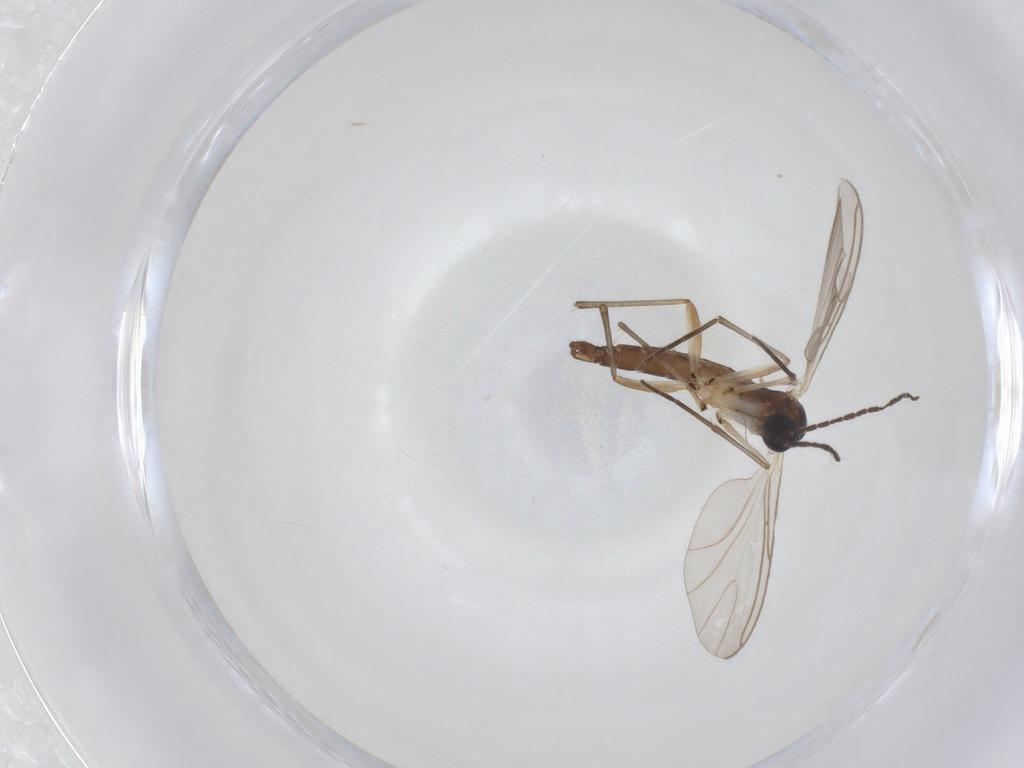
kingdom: Animalia
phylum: Arthropoda
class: Insecta
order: Diptera
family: Sciaridae
